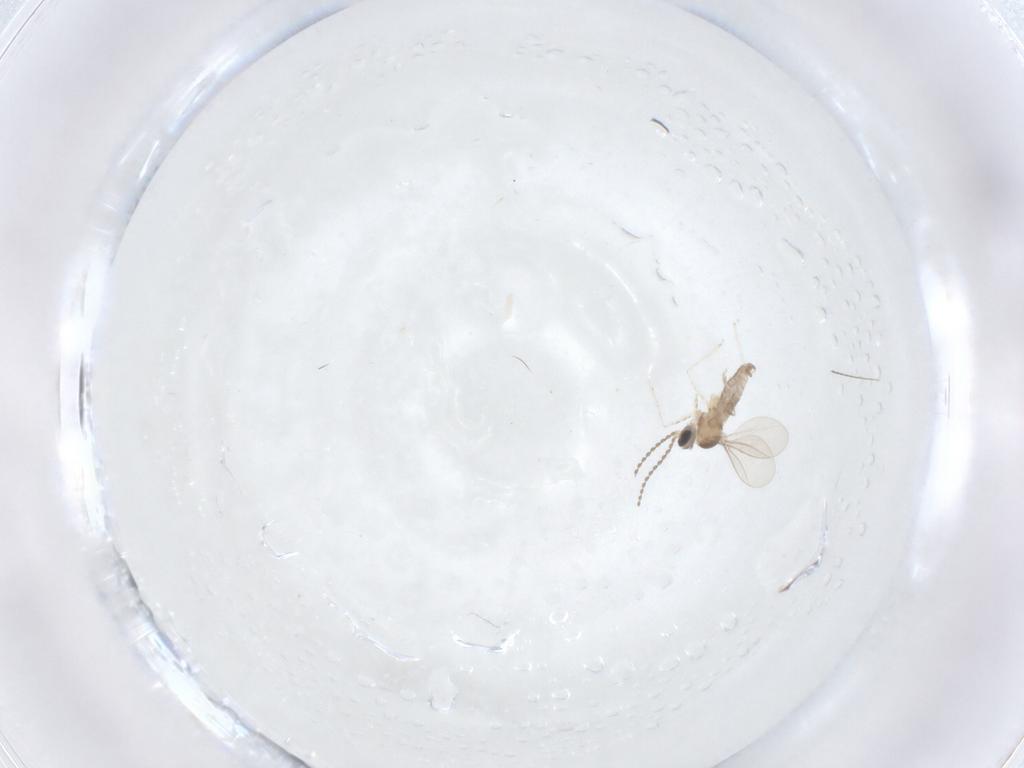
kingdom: Animalia
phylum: Arthropoda
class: Insecta
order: Diptera
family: Cecidomyiidae
